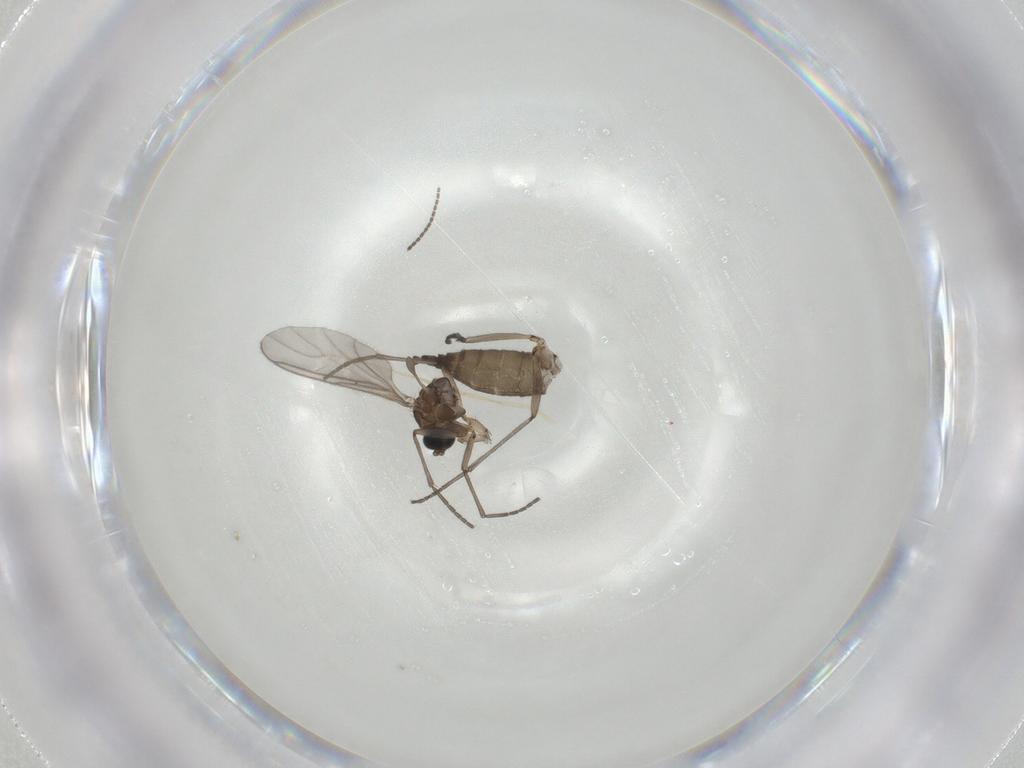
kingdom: Animalia
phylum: Arthropoda
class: Insecta
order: Diptera
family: Sciaridae
